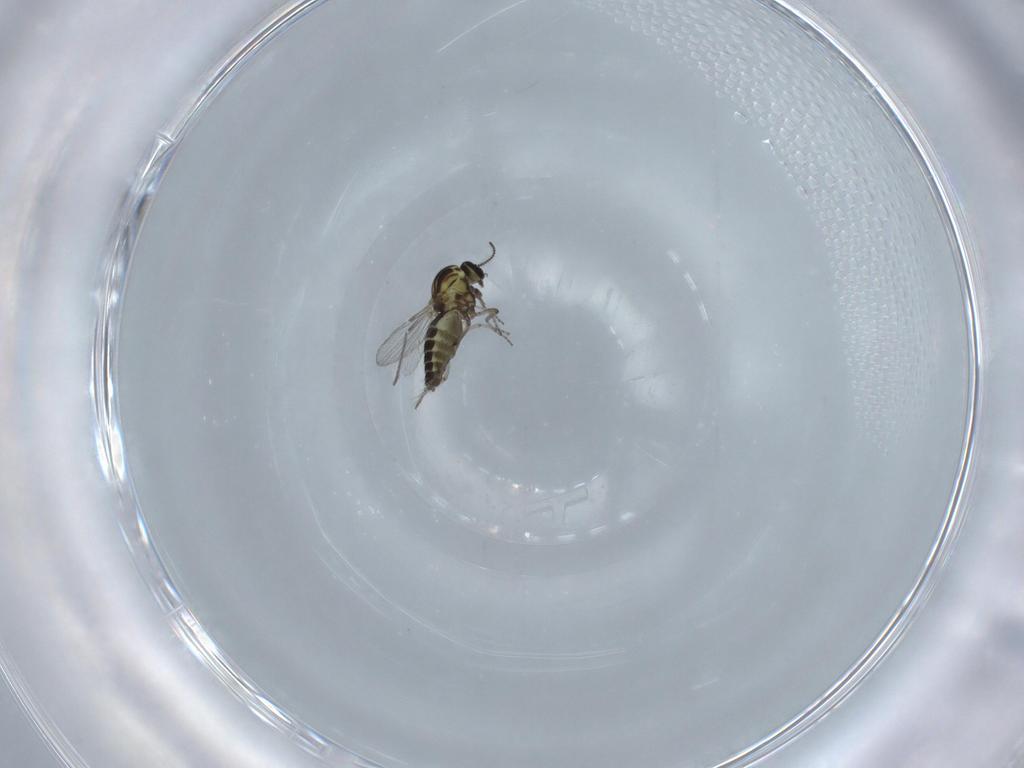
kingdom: Animalia
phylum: Arthropoda
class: Insecta
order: Diptera
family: Ceratopogonidae
